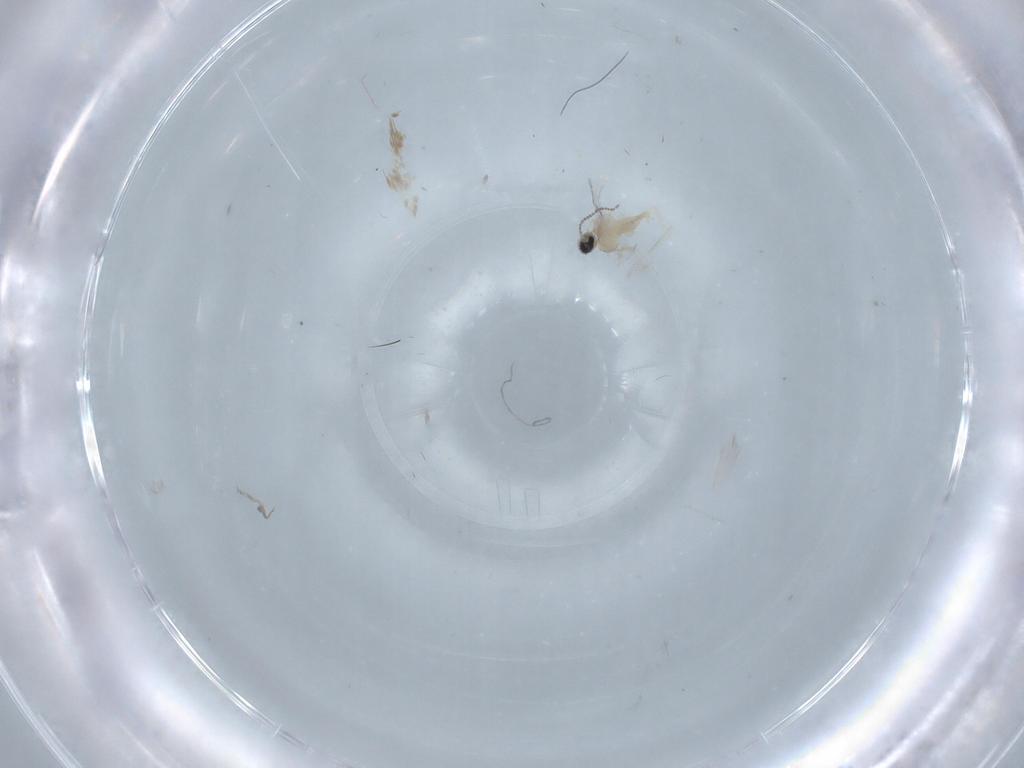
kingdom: Animalia
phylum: Arthropoda
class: Insecta
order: Diptera
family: Cecidomyiidae
